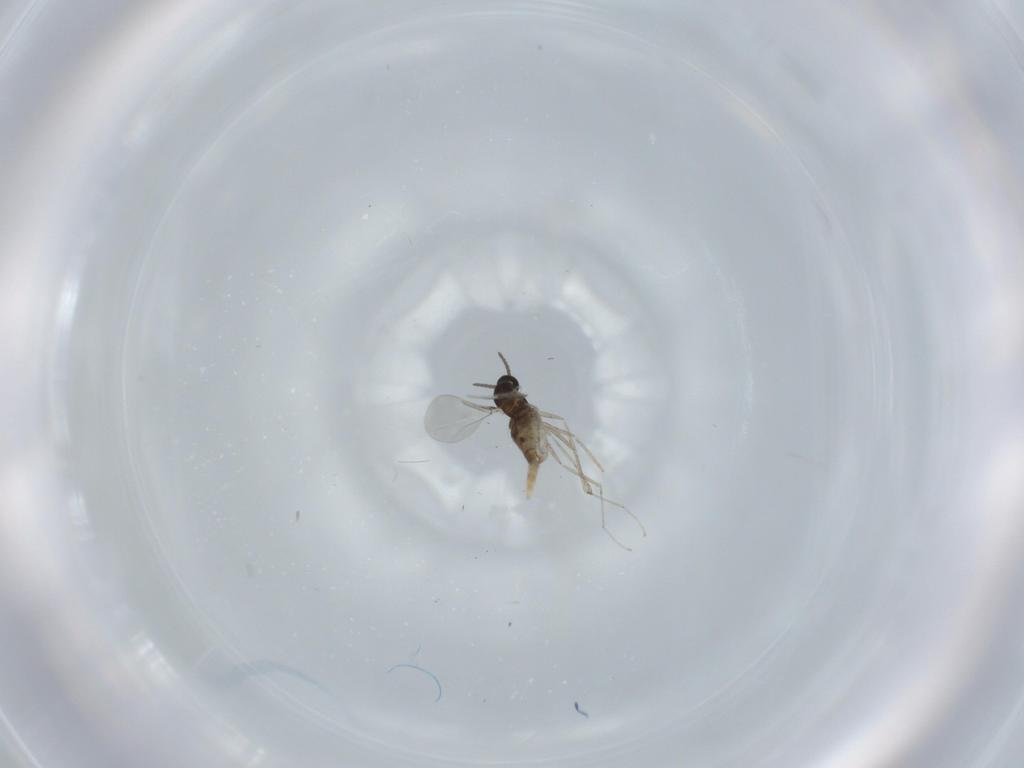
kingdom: Animalia
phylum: Arthropoda
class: Insecta
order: Diptera
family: Cecidomyiidae
